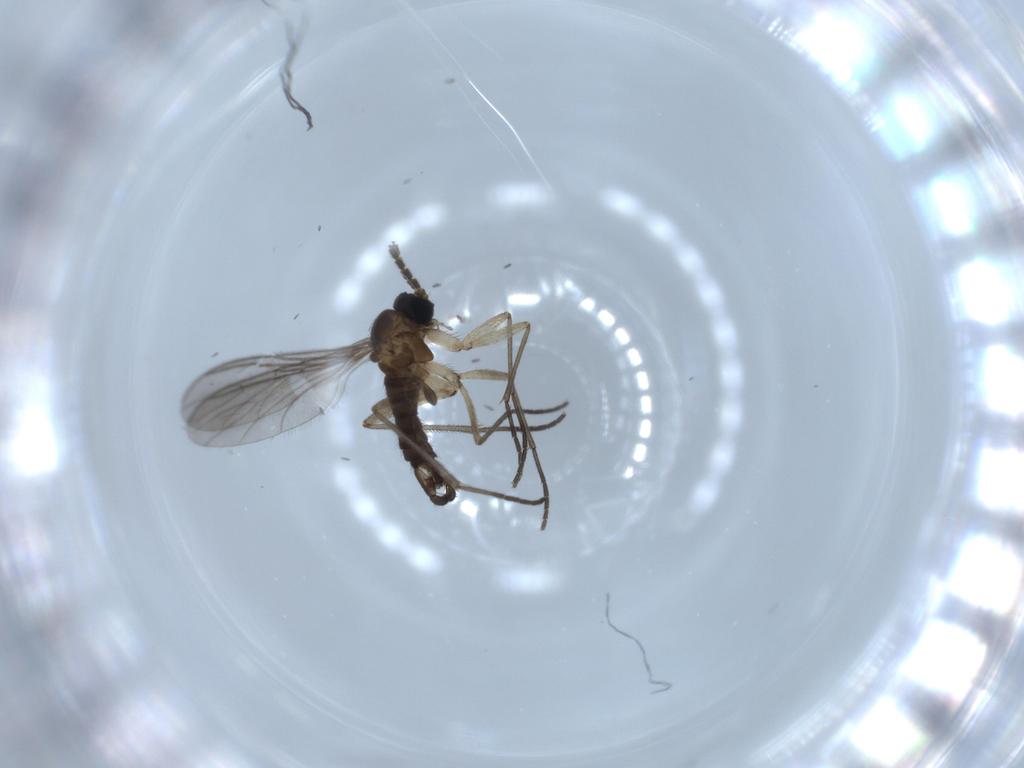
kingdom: Animalia
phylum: Arthropoda
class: Insecta
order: Diptera
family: Sciaridae
